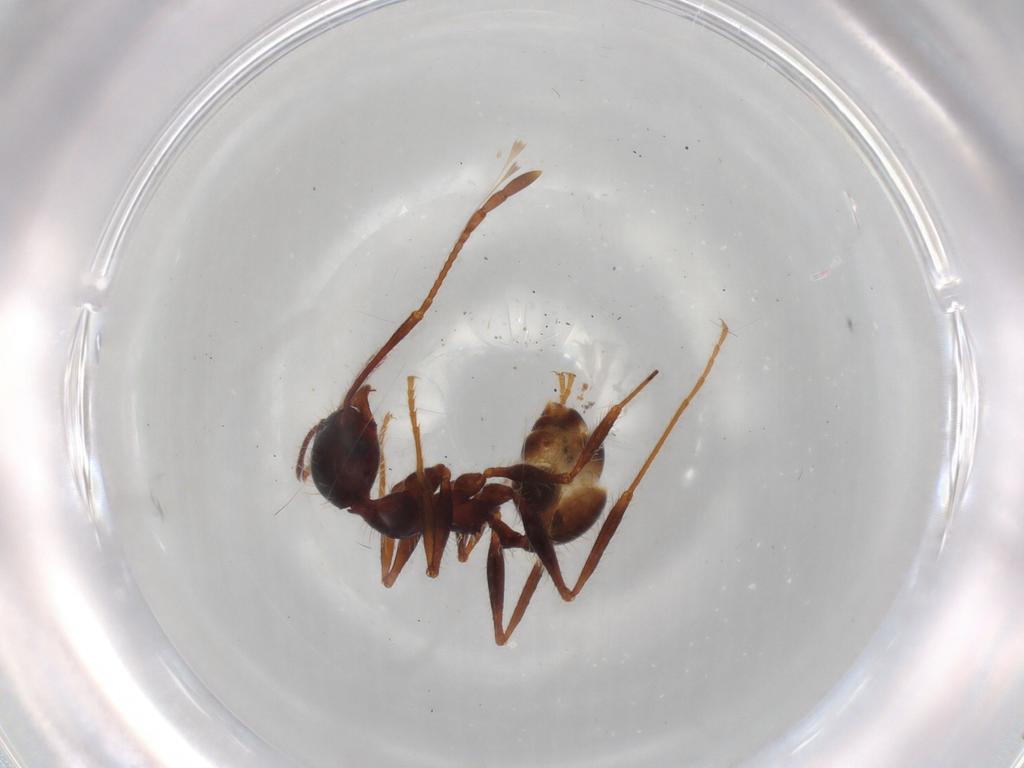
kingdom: Animalia
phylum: Arthropoda
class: Insecta
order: Hymenoptera
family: Formicidae
